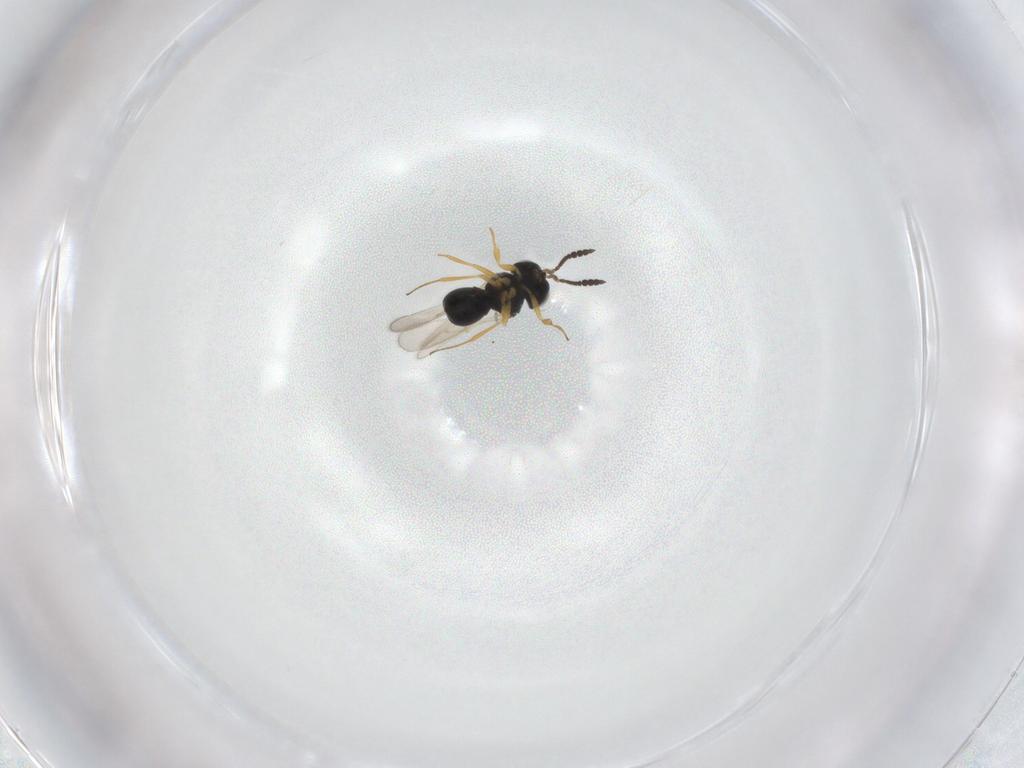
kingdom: Animalia
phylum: Arthropoda
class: Insecta
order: Hymenoptera
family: Scelionidae
